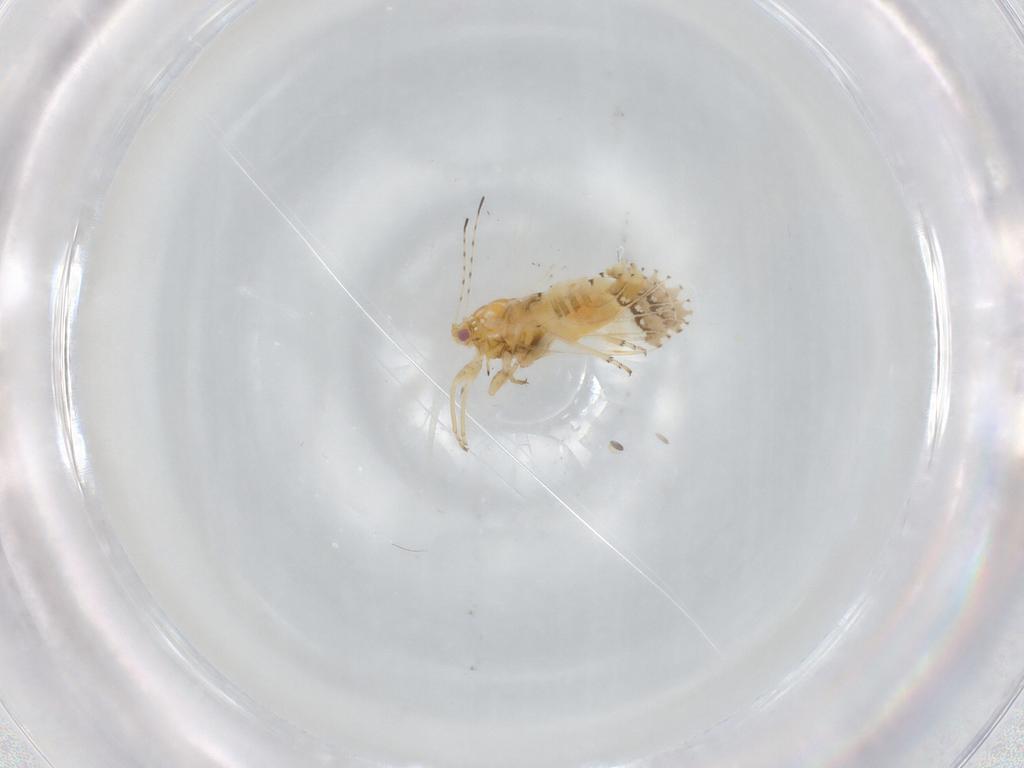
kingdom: Animalia
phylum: Arthropoda
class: Insecta
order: Hemiptera
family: Psyllidae
